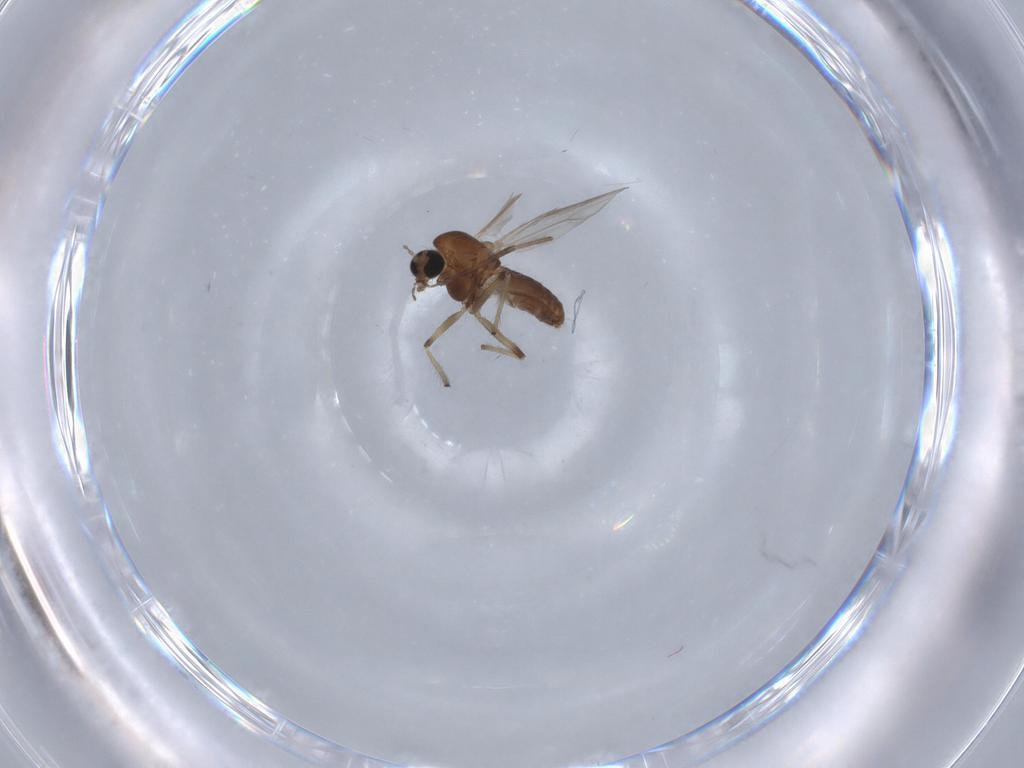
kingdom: Animalia
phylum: Arthropoda
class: Insecta
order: Diptera
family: Chironomidae
